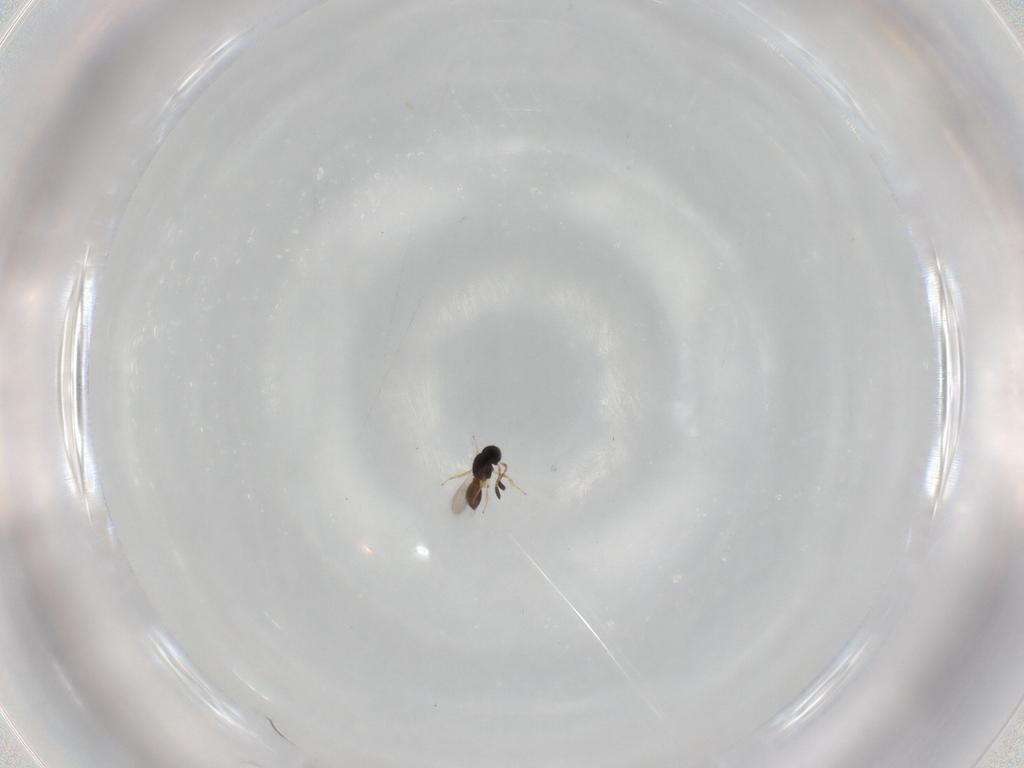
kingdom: Animalia
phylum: Arthropoda
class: Insecta
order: Hymenoptera
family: Scelionidae
